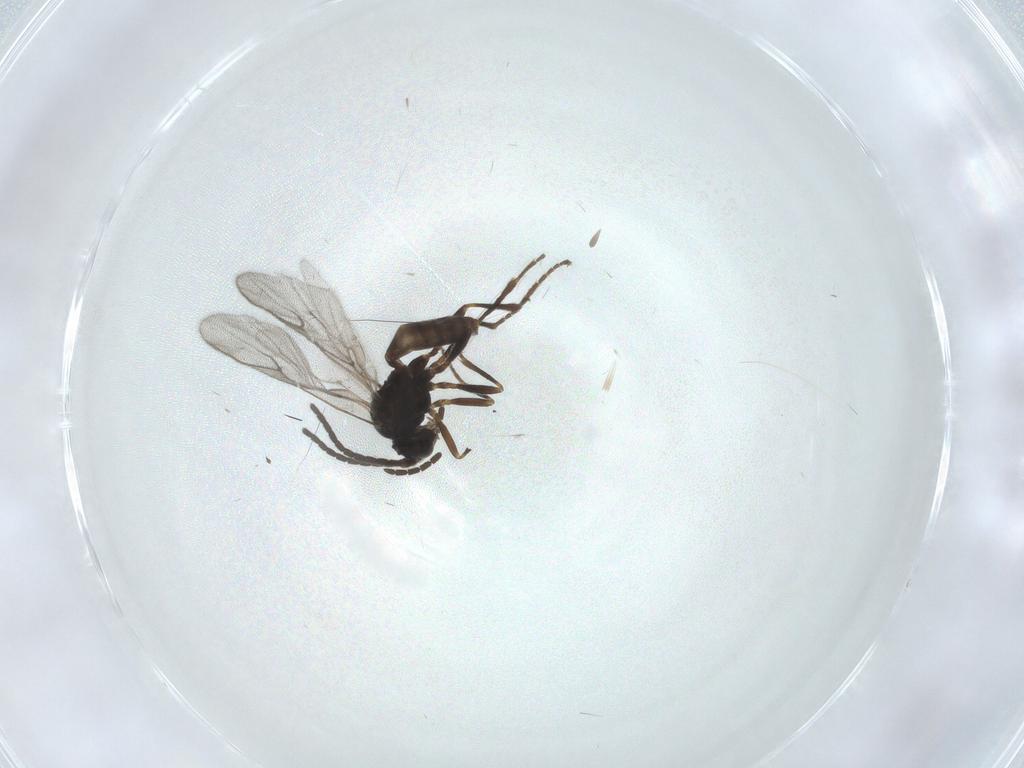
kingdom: Animalia
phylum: Arthropoda
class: Insecta
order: Hymenoptera
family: Braconidae
